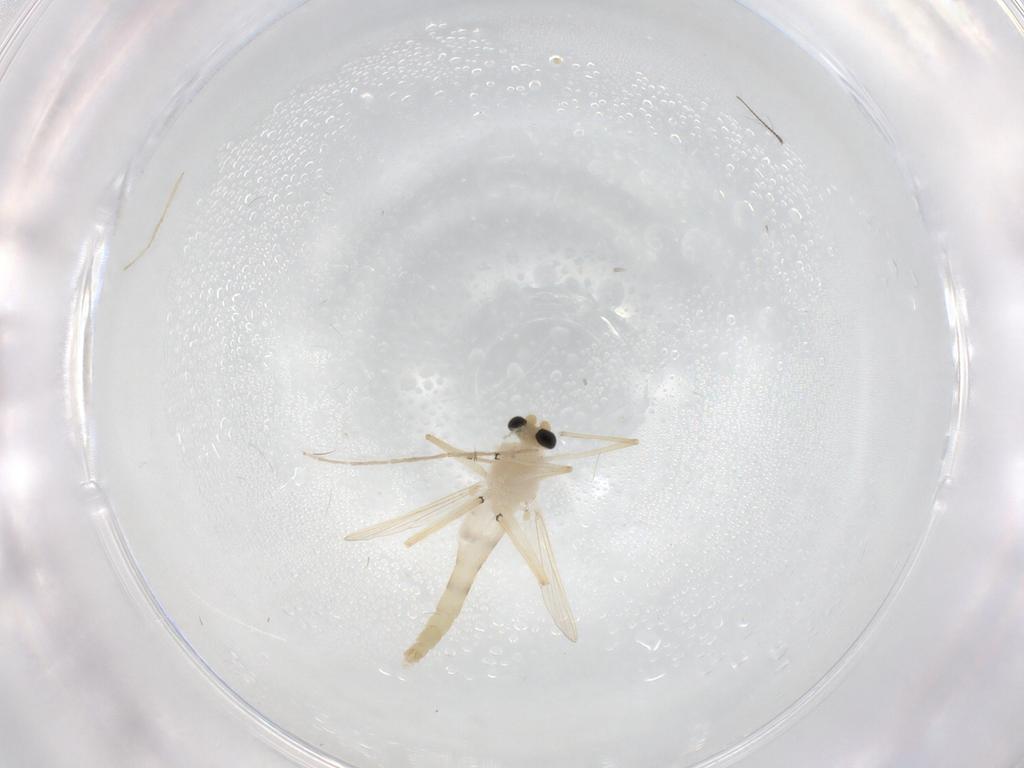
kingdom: Animalia
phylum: Arthropoda
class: Insecta
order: Diptera
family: Chironomidae
